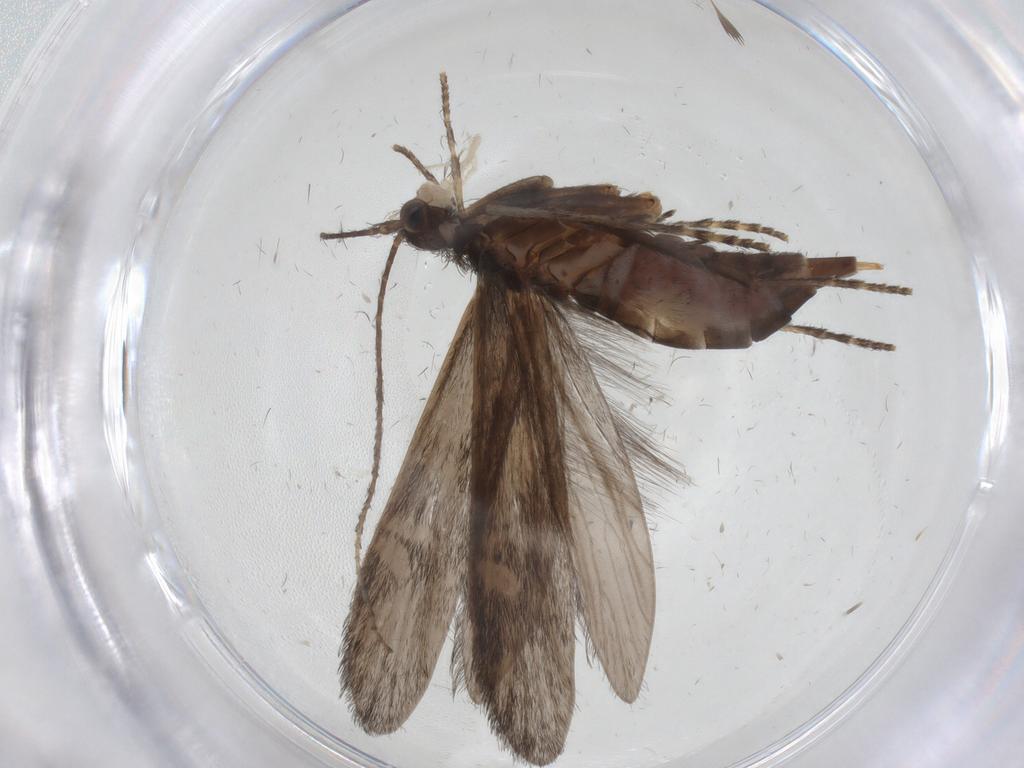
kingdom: Animalia
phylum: Arthropoda
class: Insecta
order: Trichoptera
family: Xiphocentronidae
